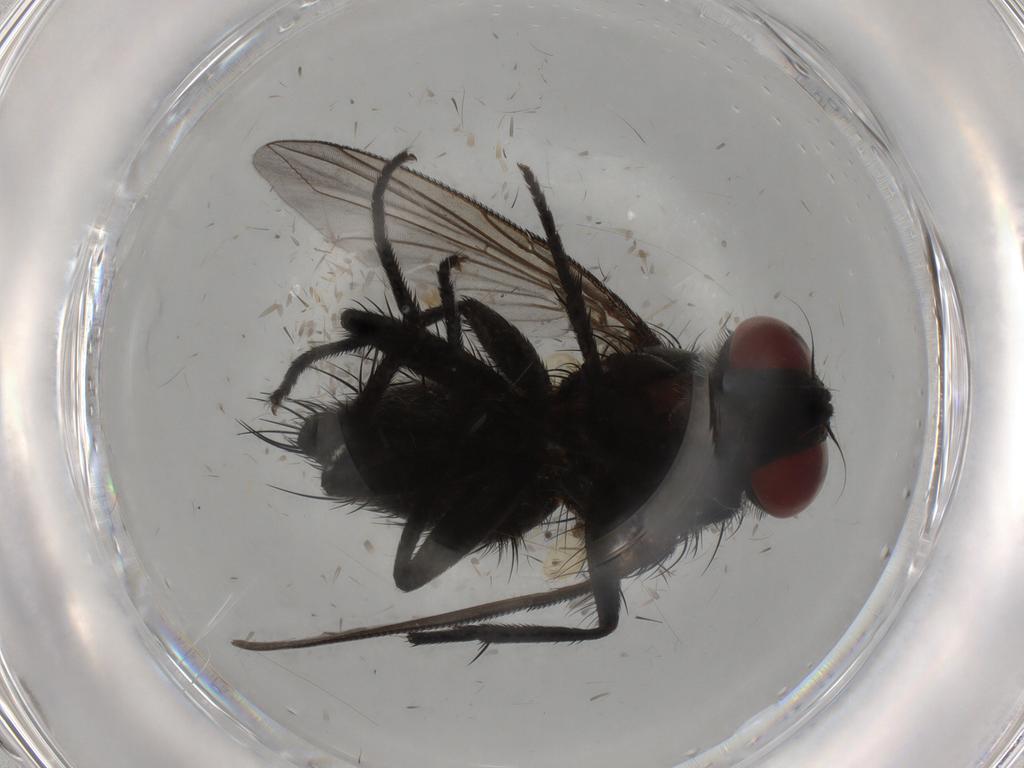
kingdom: Animalia
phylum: Arthropoda
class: Insecta
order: Diptera
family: Tachinidae
